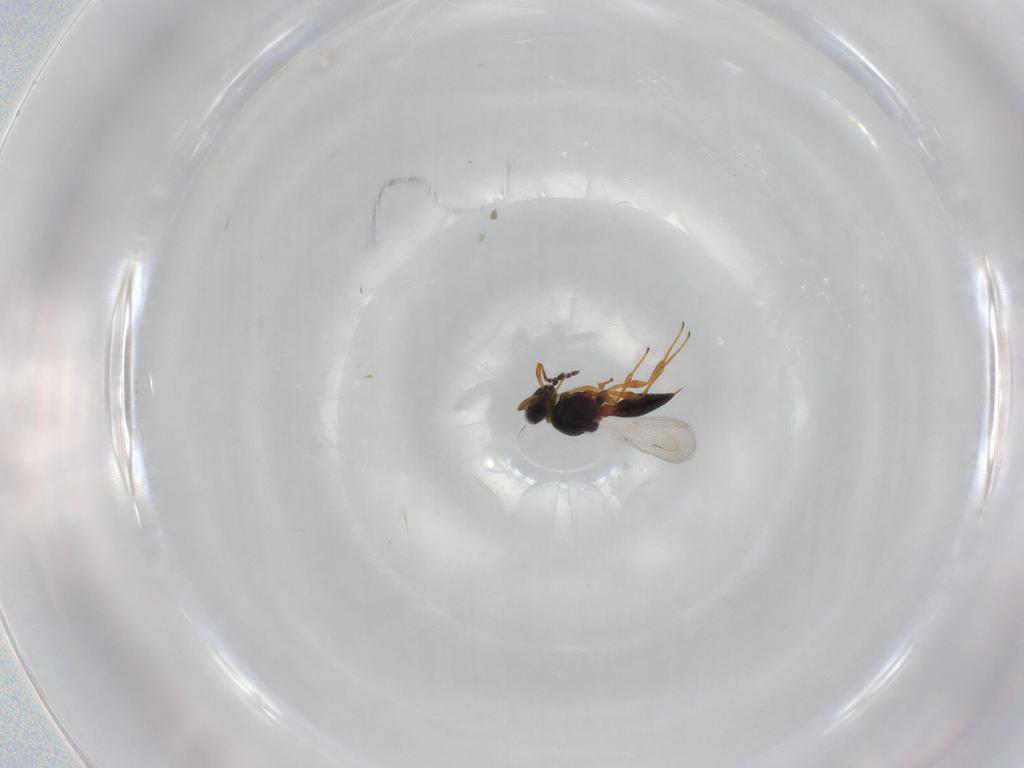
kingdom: Animalia
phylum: Arthropoda
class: Insecta
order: Hymenoptera
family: Platygastridae
